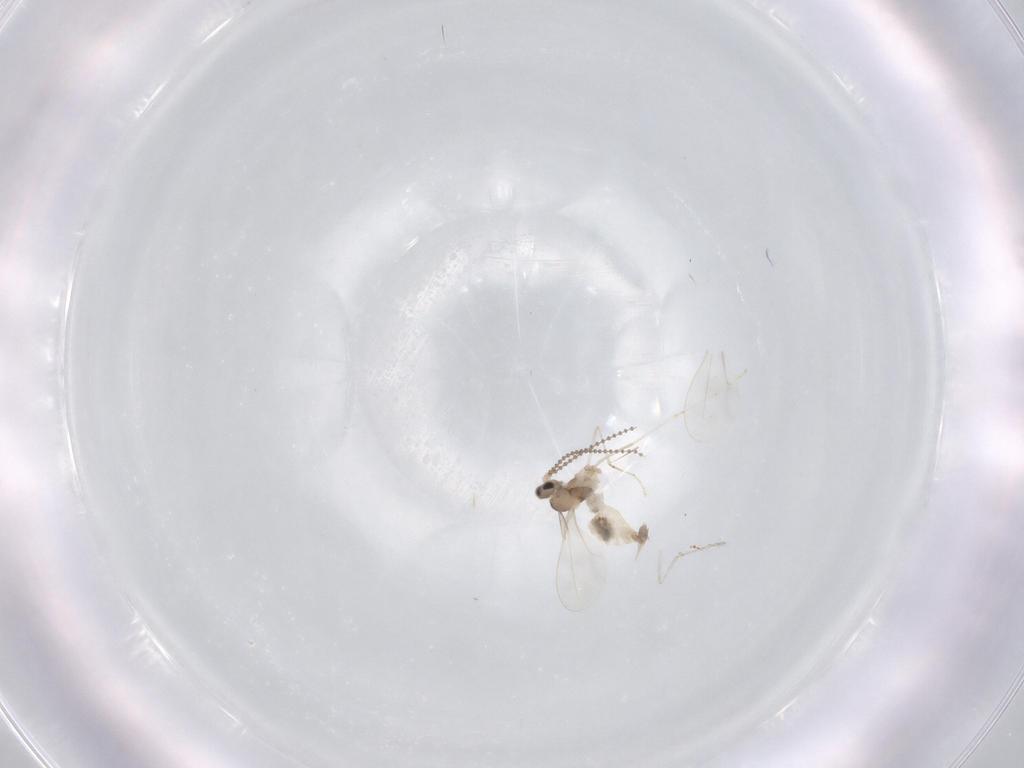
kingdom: Animalia
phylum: Arthropoda
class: Insecta
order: Diptera
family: Cecidomyiidae
